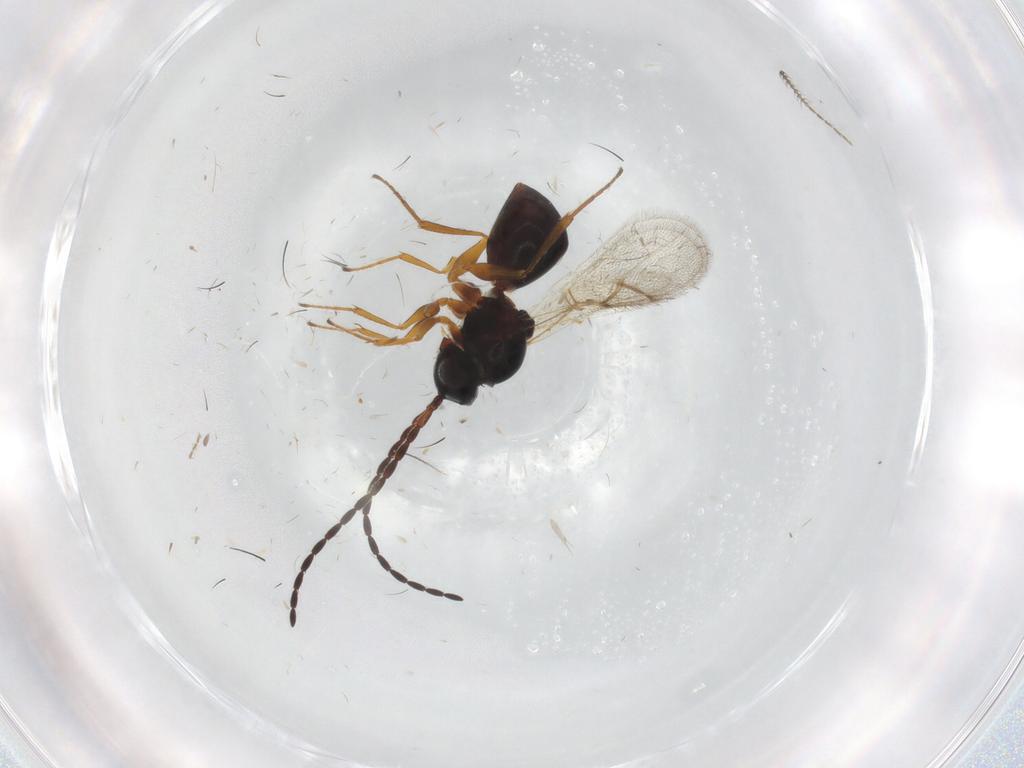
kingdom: Animalia
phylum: Arthropoda
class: Insecta
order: Hymenoptera
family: Figitidae
